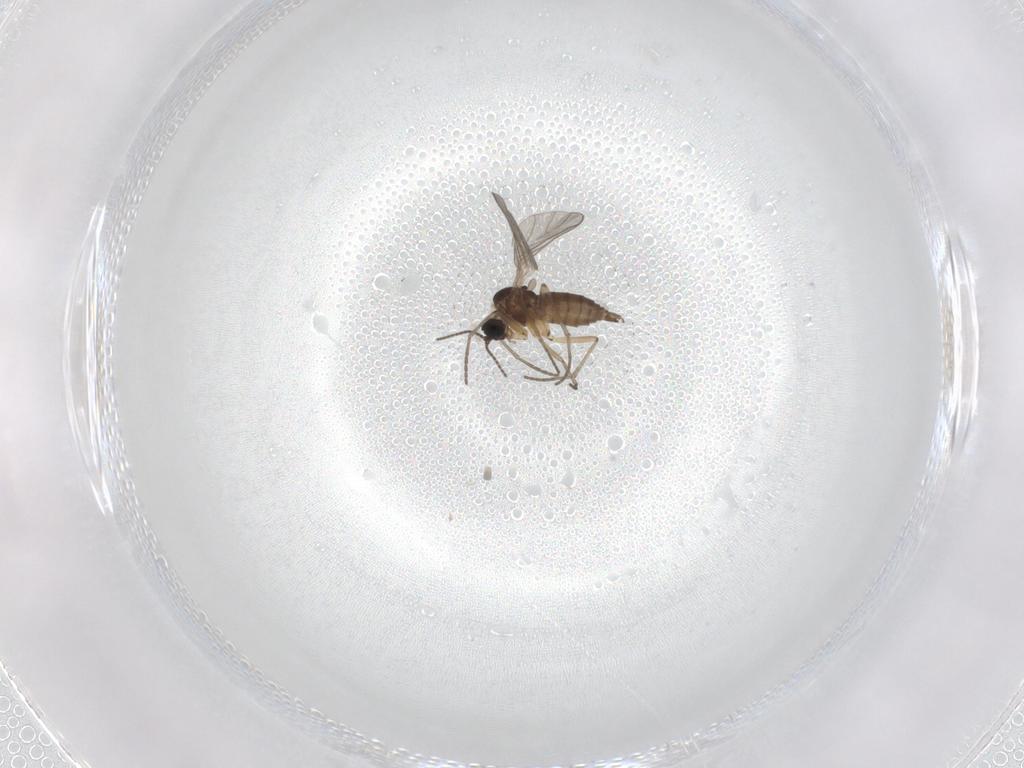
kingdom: Animalia
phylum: Arthropoda
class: Insecta
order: Diptera
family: Sciaridae
